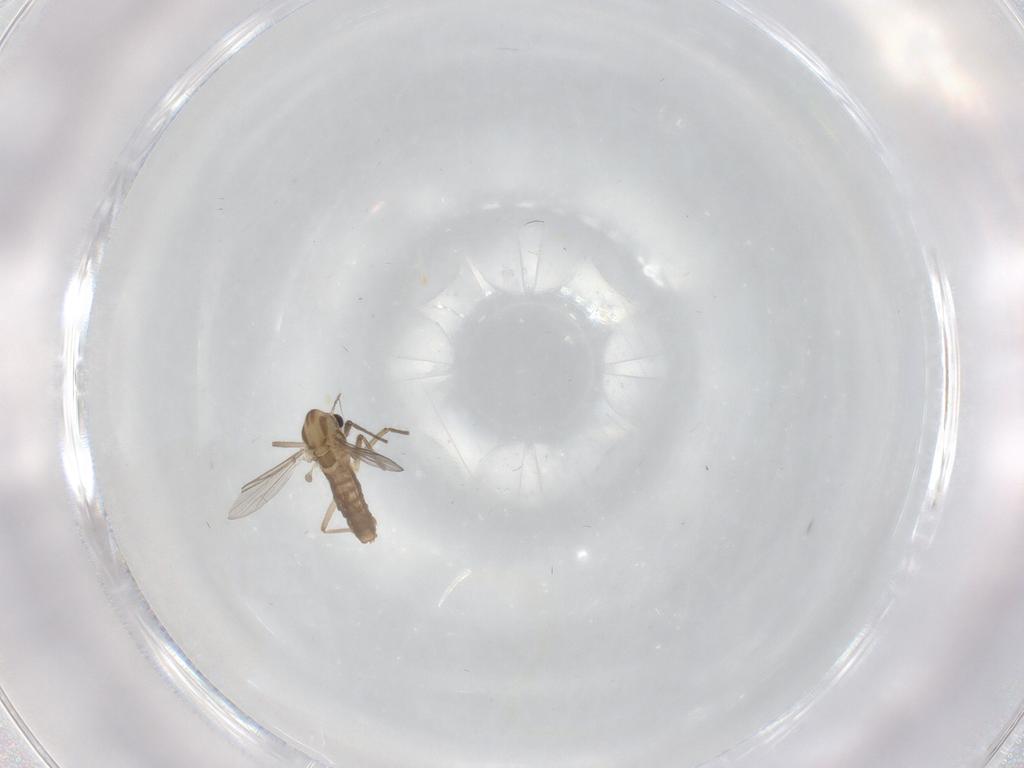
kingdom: Animalia
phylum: Arthropoda
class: Insecta
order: Diptera
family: Chironomidae
